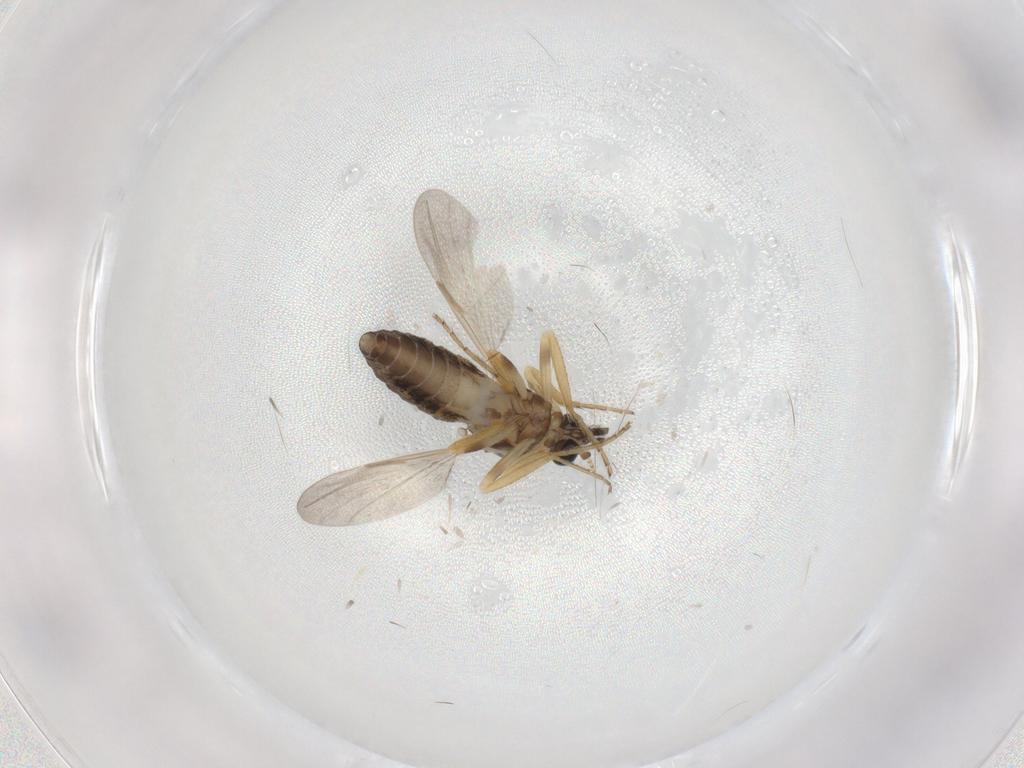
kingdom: Animalia
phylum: Arthropoda
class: Insecta
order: Diptera
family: Ceratopogonidae
